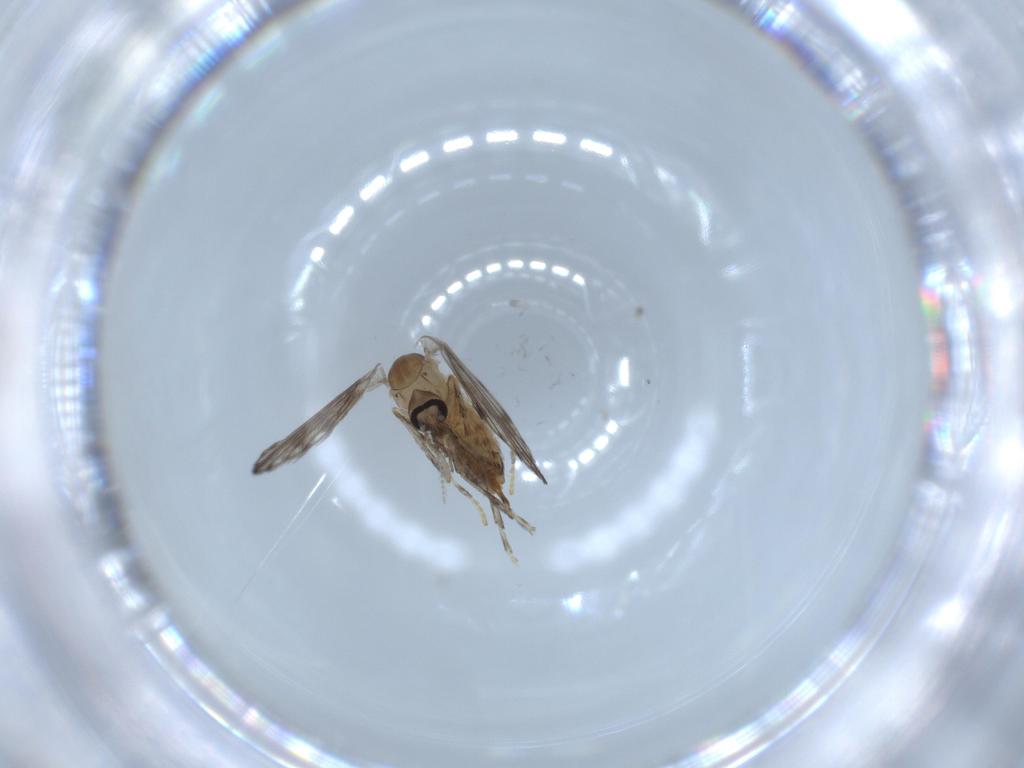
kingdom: Animalia
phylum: Arthropoda
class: Insecta
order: Diptera
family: Psychodidae
